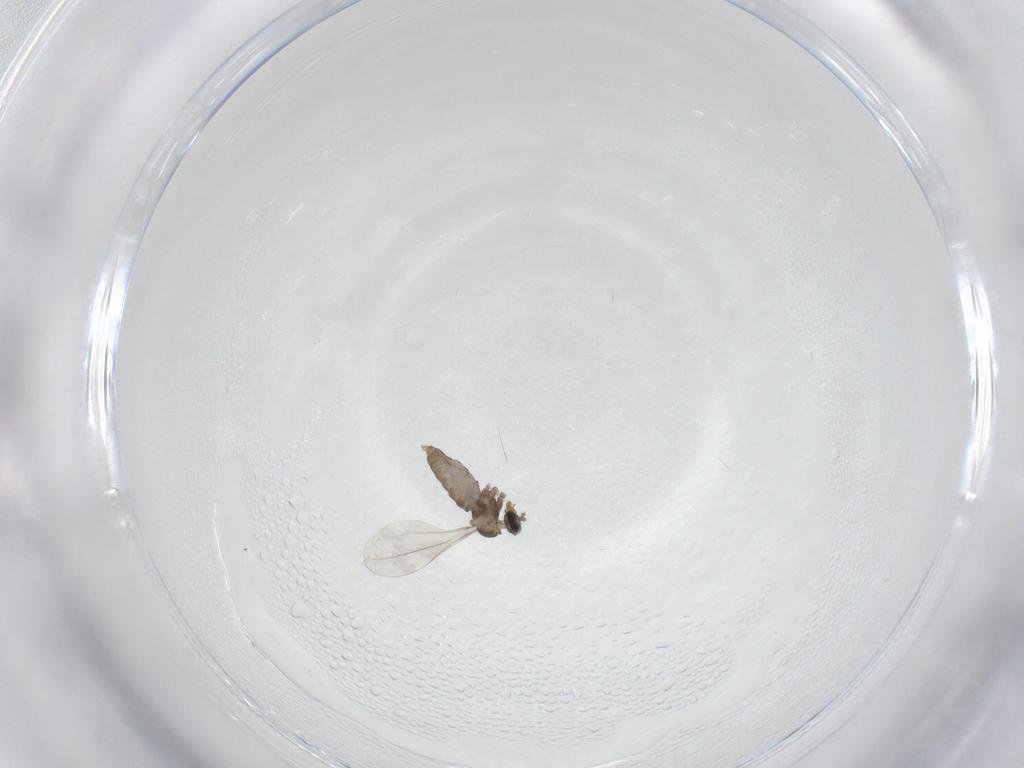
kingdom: Animalia
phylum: Arthropoda
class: Insecta
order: Diptera
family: Cecidomyiidae
